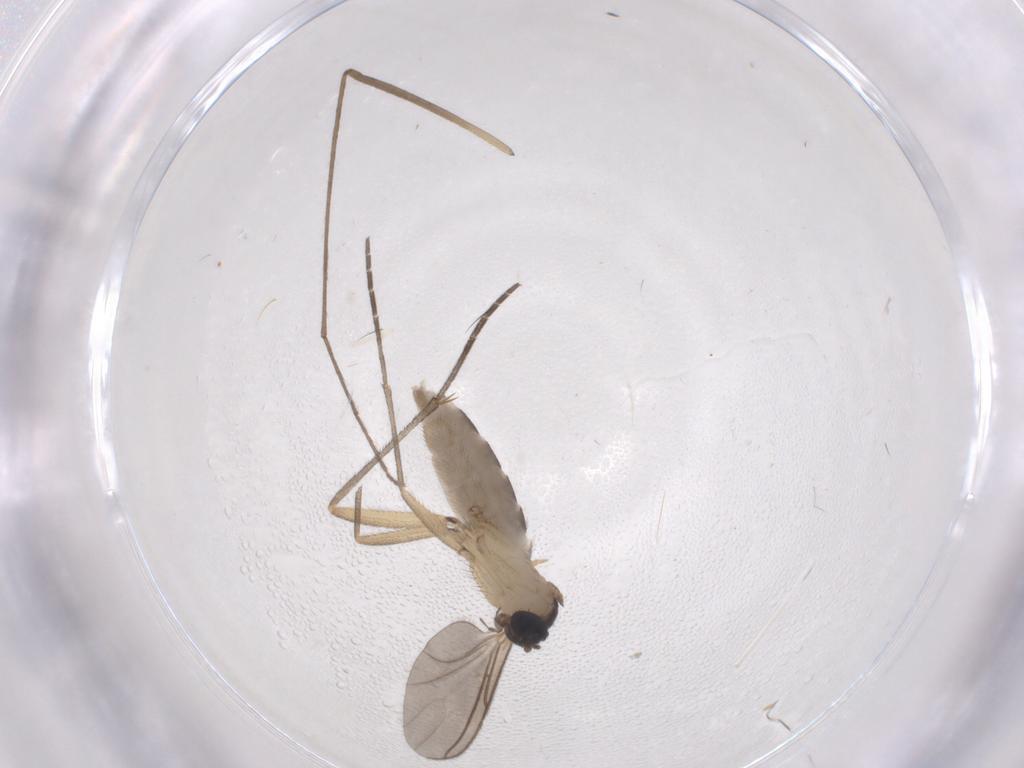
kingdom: Animalia
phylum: Arthropoda
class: Insecta
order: Diptera
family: Sciaridae
